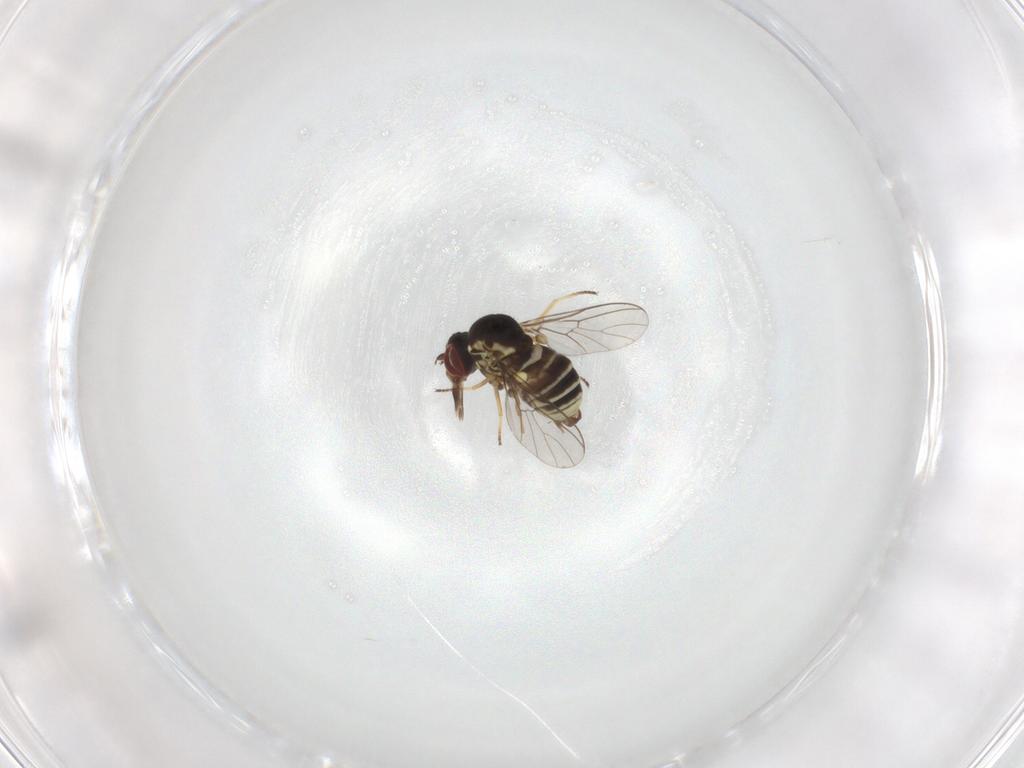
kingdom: Animalia
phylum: Arthropoda
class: Insecta
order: Diptera
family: Mythicomyiidae
